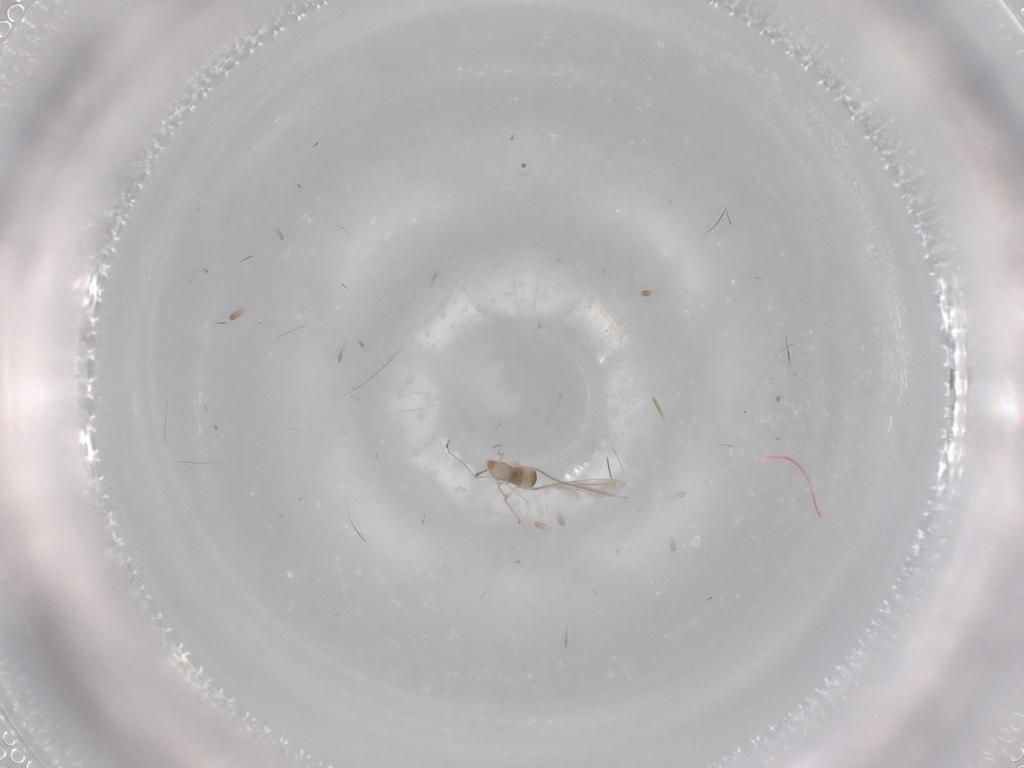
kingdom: Animalia
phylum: Arthropoda
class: Insecta
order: Diptera
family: Cecidomyiidae
